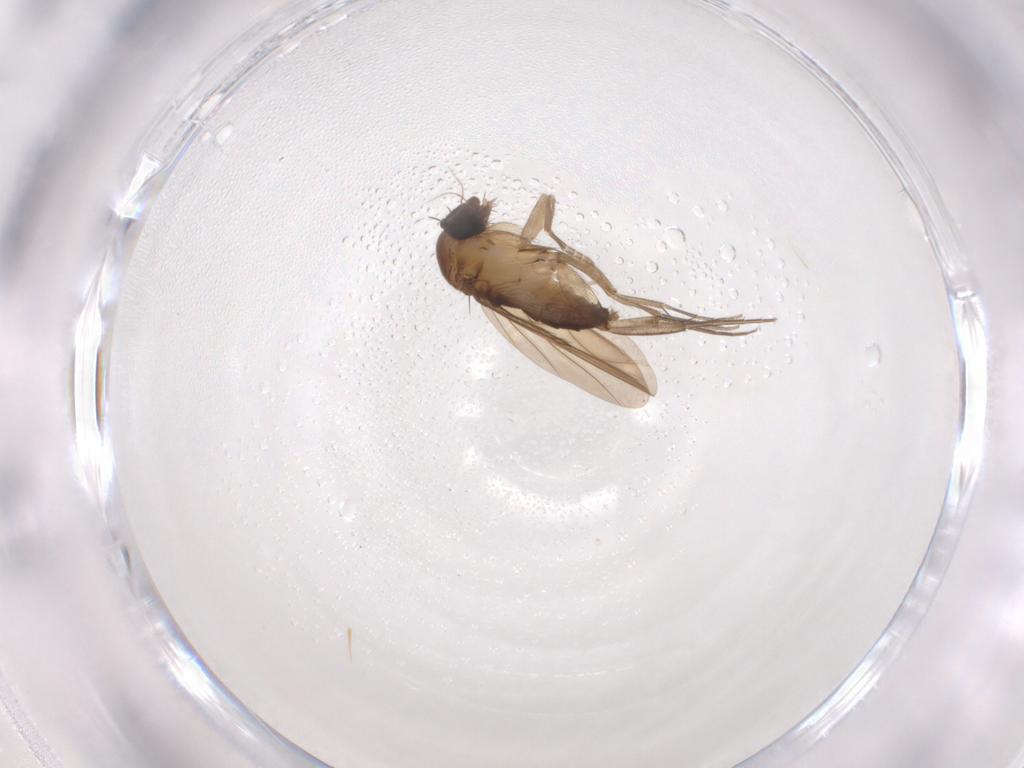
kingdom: Animalia
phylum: Arthropoda
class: Insecta
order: Diptera
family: Phoridae
